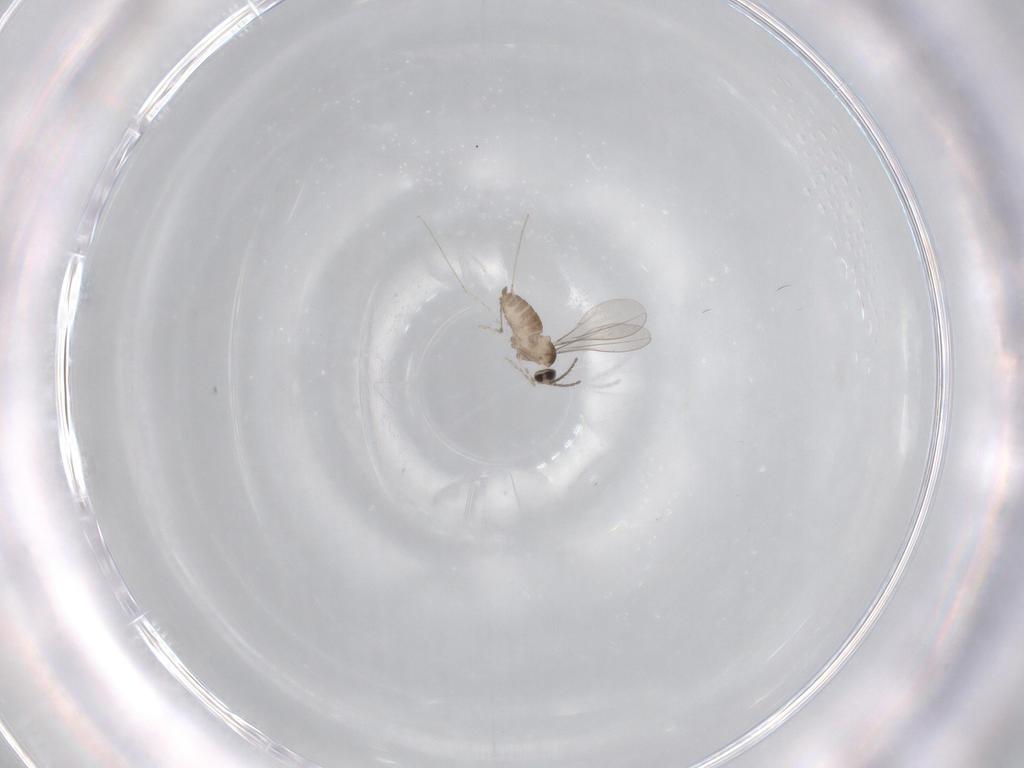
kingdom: Animalia
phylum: Arthropoda
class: Insecta
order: Diptera
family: Cecidomyiidae
